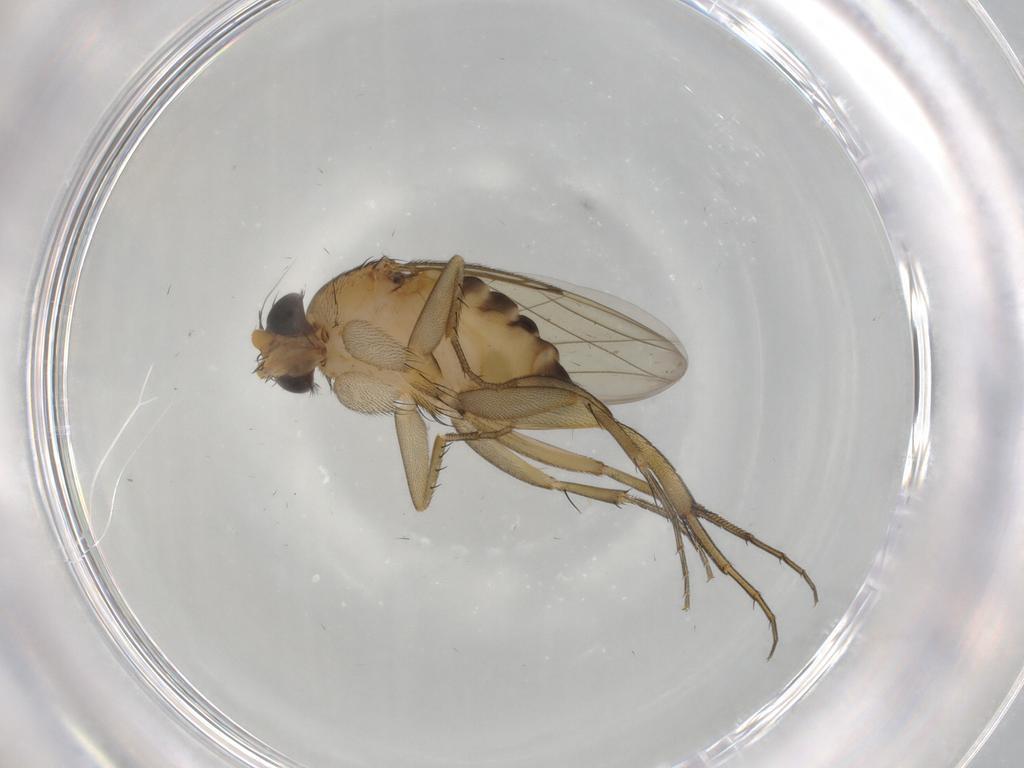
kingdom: Animalia
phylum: Arthropoda
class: Insecta
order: Diptera
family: Phoridae
